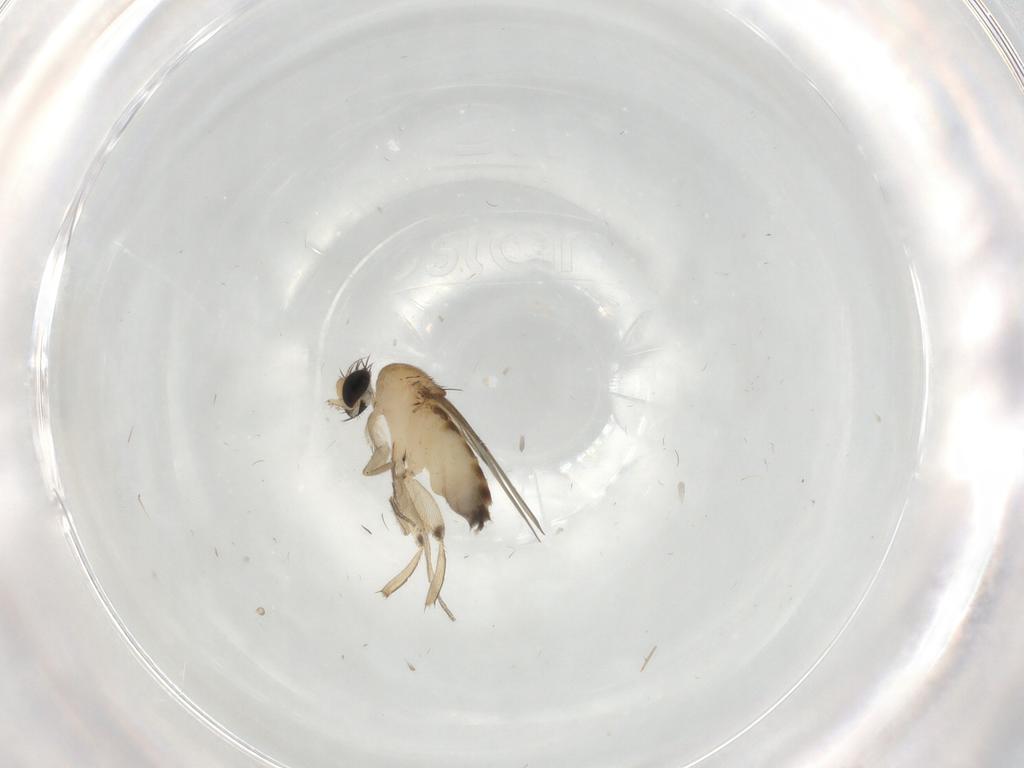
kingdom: Animalia
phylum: Arthropoda
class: Insecta
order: Diptera
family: Phoridae
